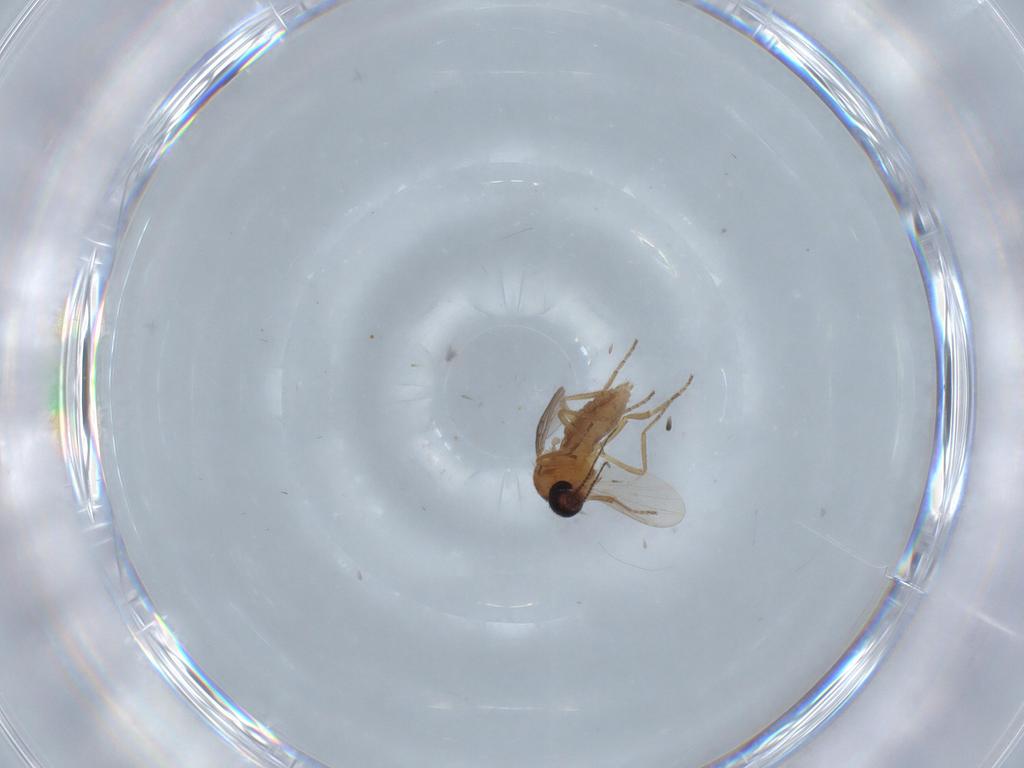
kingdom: Animalia
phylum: Arthropoda
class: Insecta
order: Diptera
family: Ceratopogonidae
